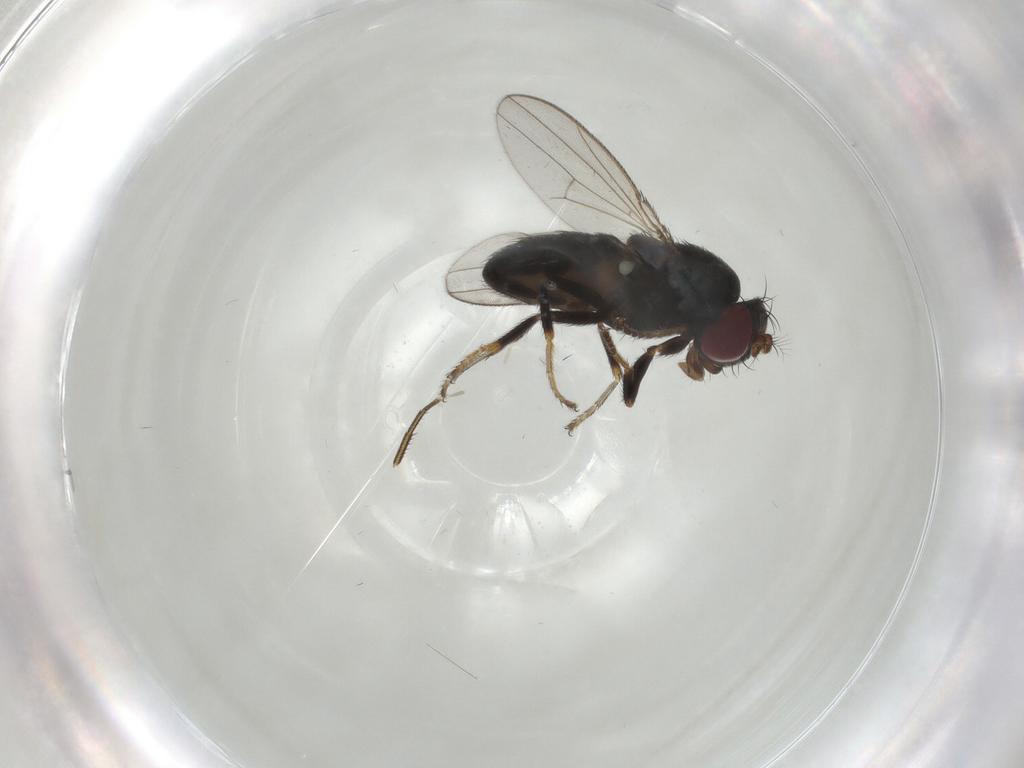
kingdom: Animalia
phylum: Arthropoda
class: Insecta
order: Diptera
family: Ephydridae
